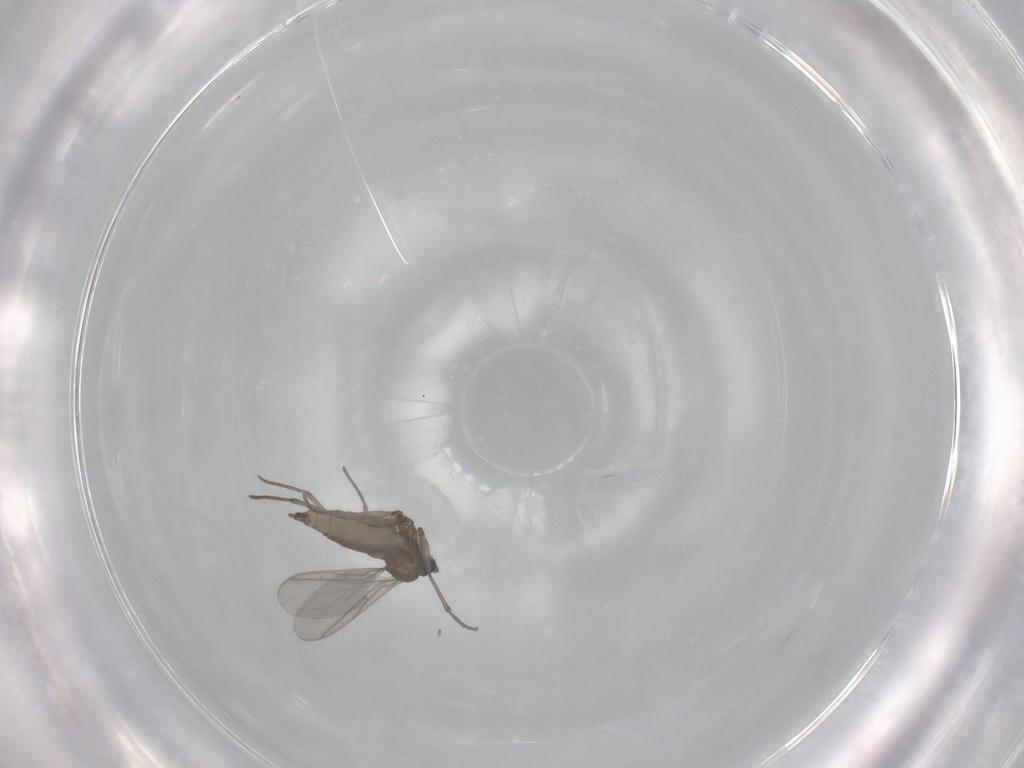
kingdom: Animalia
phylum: Arthropoda
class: Insecta
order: Diptera
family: Sciaridae
